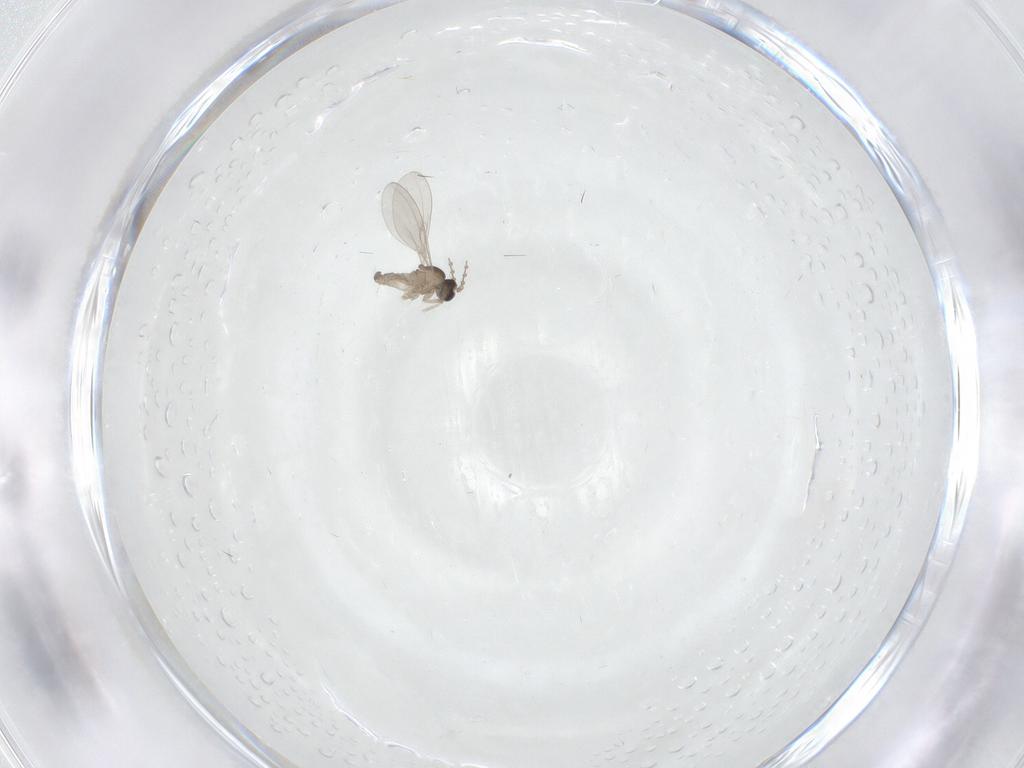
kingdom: Animalia
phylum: Arthropoda
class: Insecta
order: Diptera
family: Cecidomyiidae
